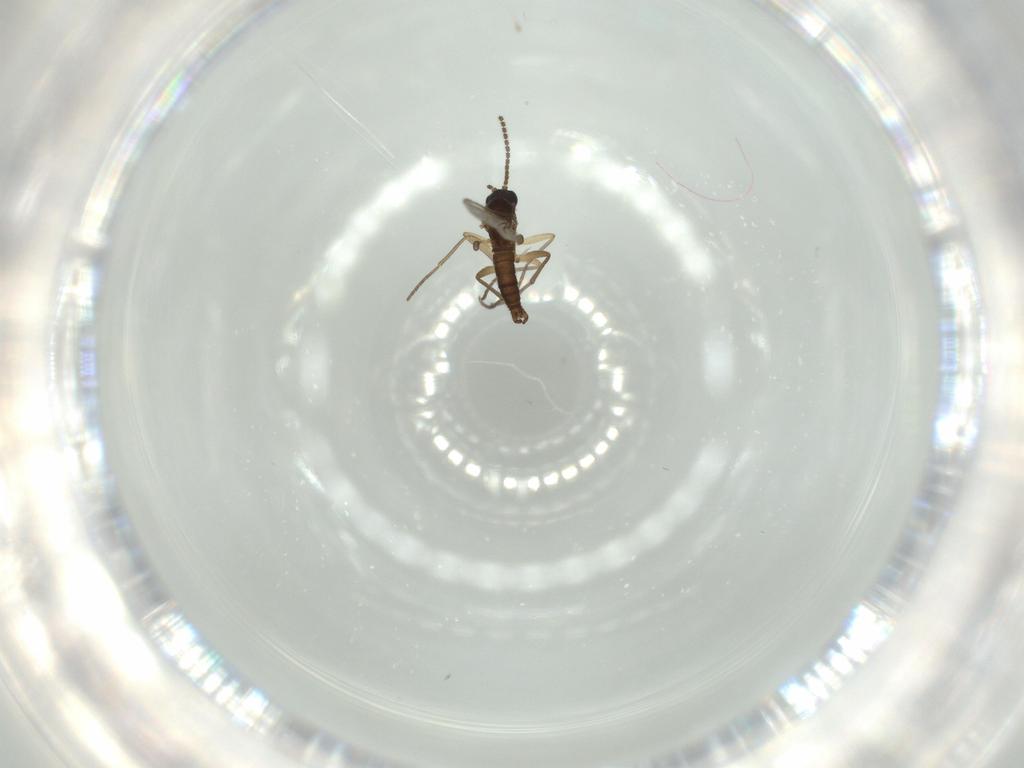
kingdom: Animalia
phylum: Arthropoda
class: Insecta
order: Diptera
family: Sciaridae
